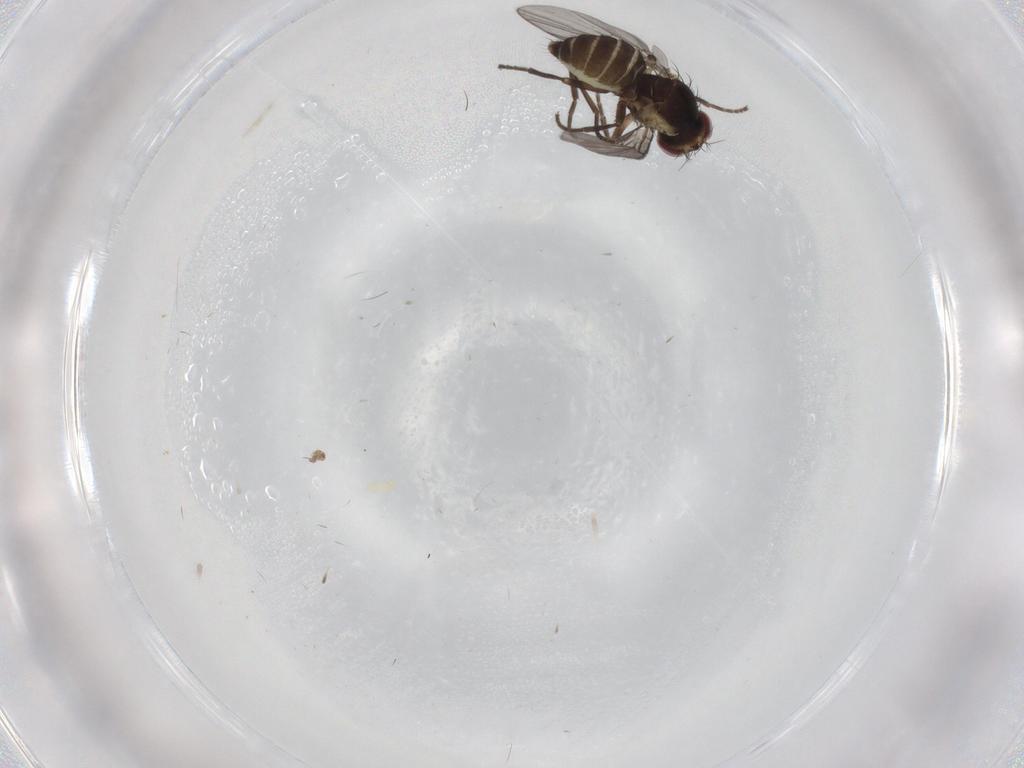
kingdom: Animalia
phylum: Arthropoda
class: Insecta
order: Diptera
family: Agromyzidae
